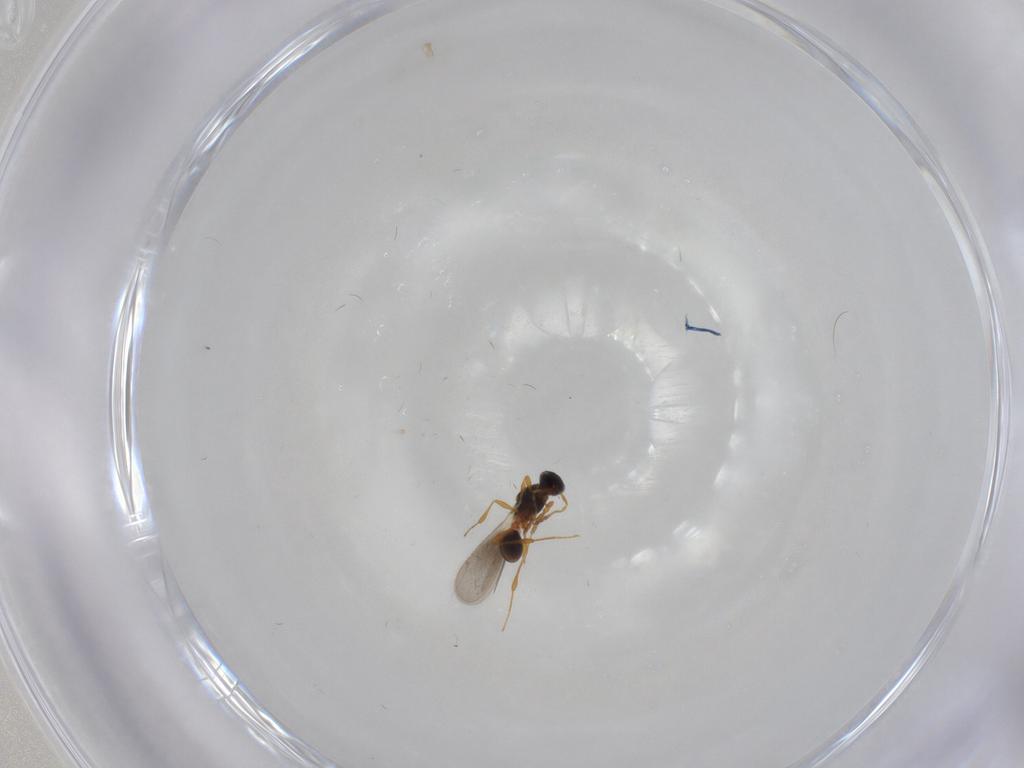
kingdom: Animalia
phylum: Arthropoda
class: Insecta
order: Hymenoptera
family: Platygastridae
